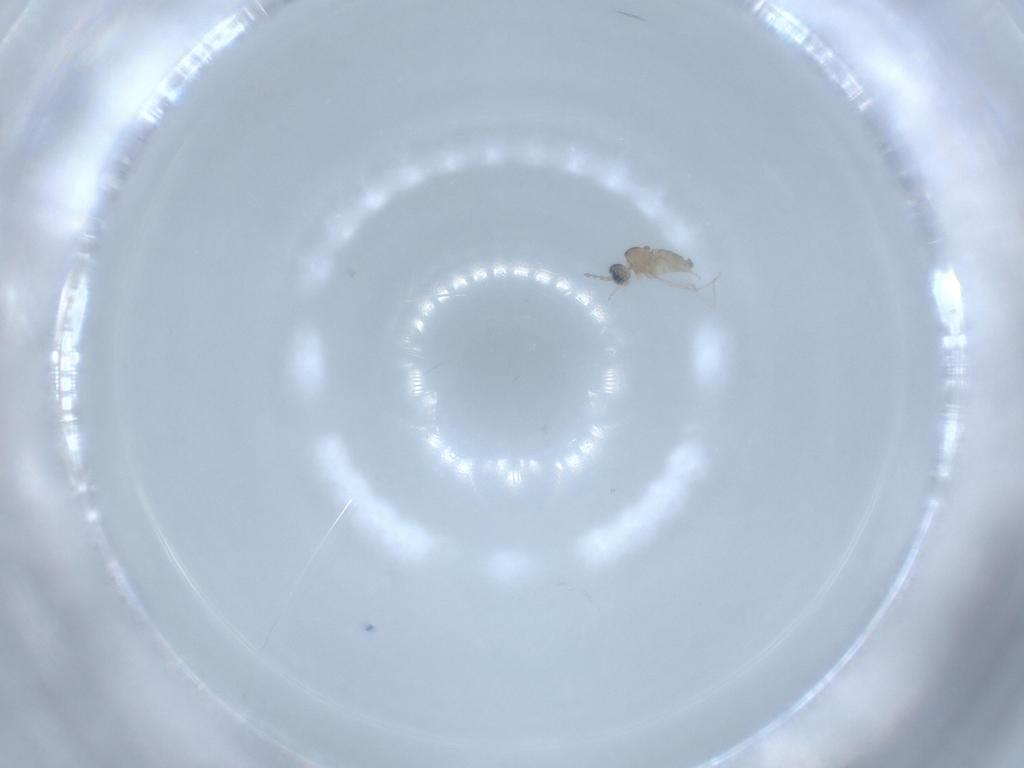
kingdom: Animalia
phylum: Arthropoda
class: Insecta
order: Diptera
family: Cecidomyiidae
